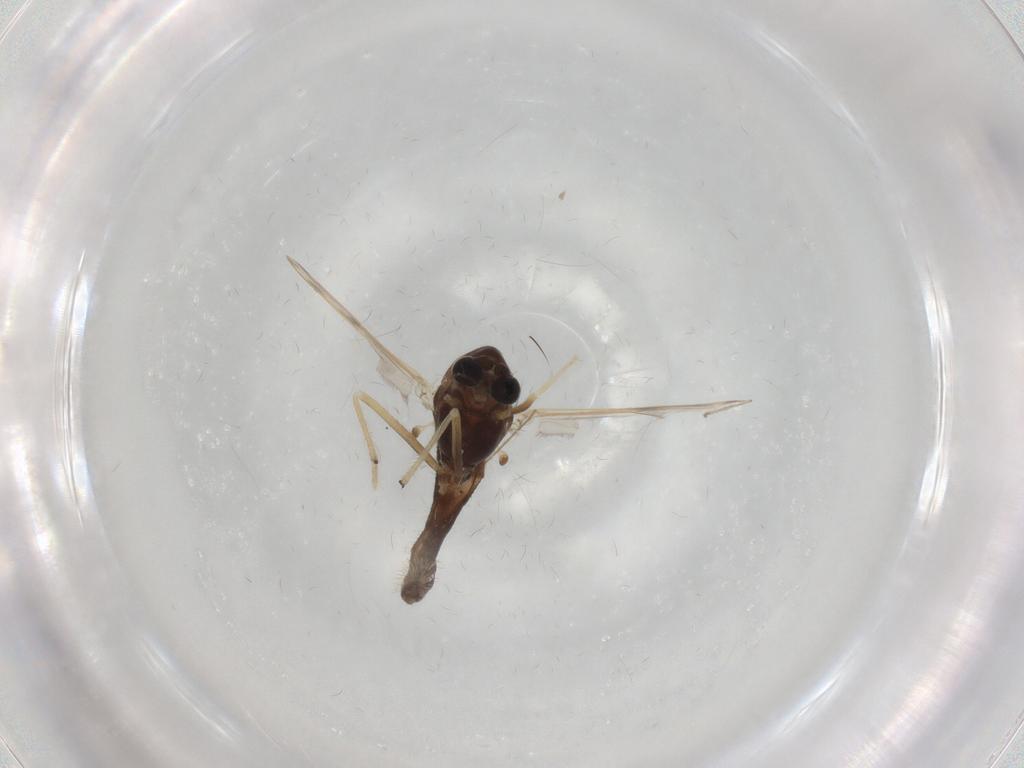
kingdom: Animalia
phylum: Arthropoda
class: Insecta
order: Diptera
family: Chironomidae
